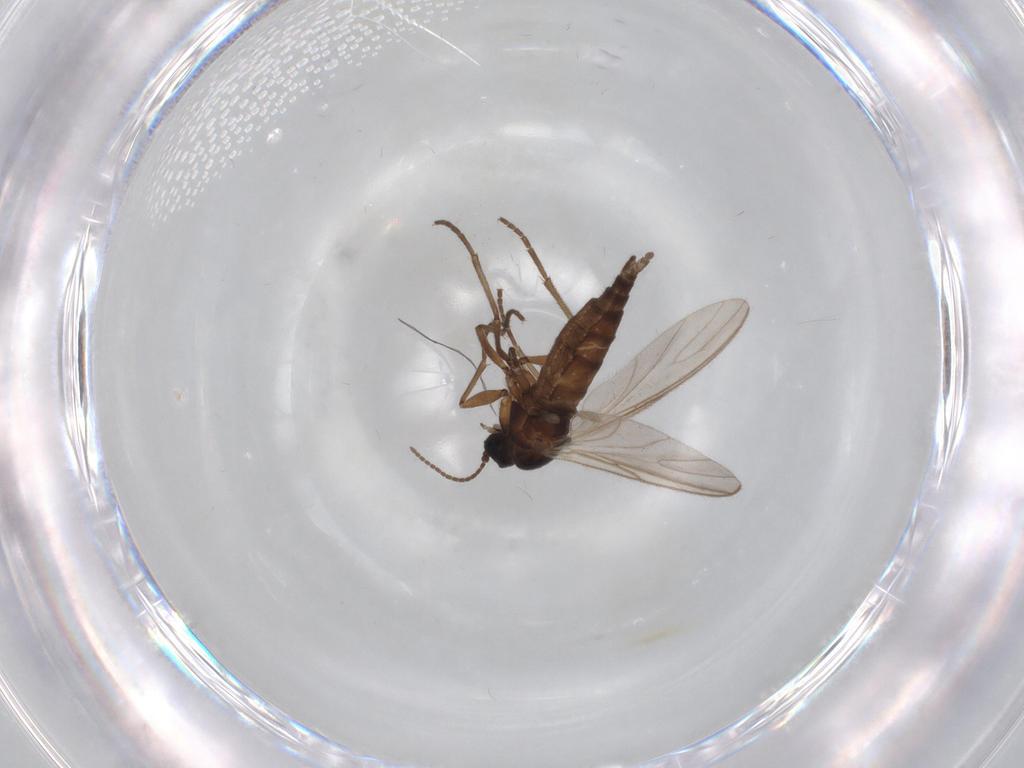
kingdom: Animalia
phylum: Arthropoda
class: Insecta
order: Diptera
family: Sciaridae
